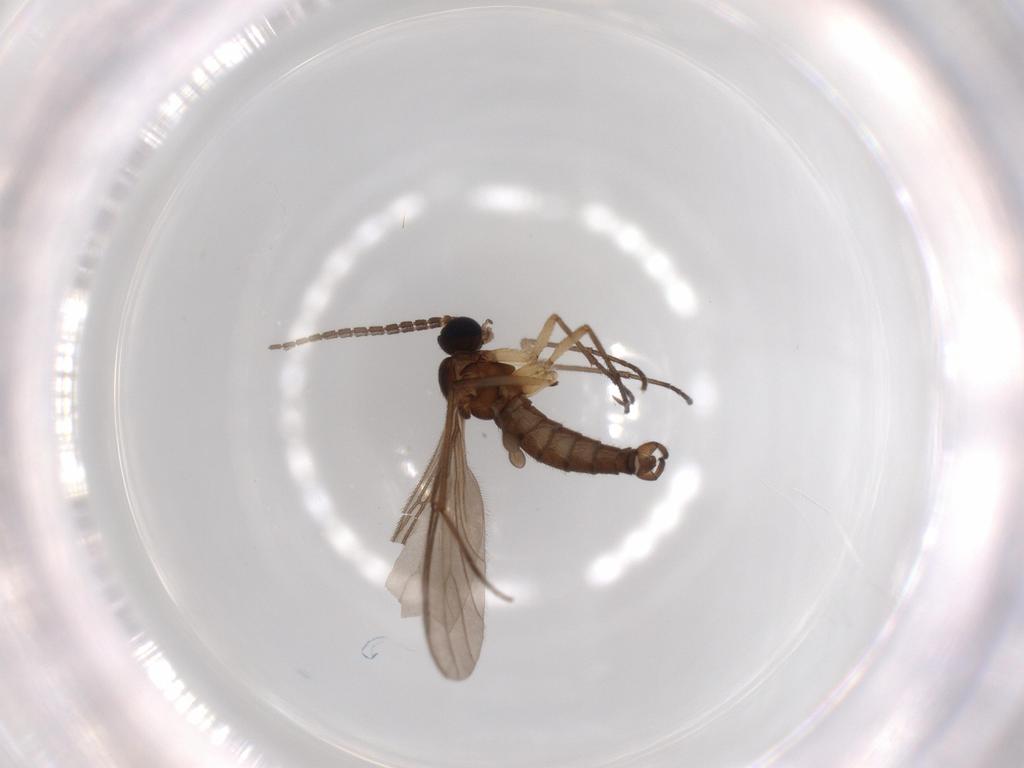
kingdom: Animalia
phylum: Arthropoda
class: Insecta
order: Diptera
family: Sciaridae
